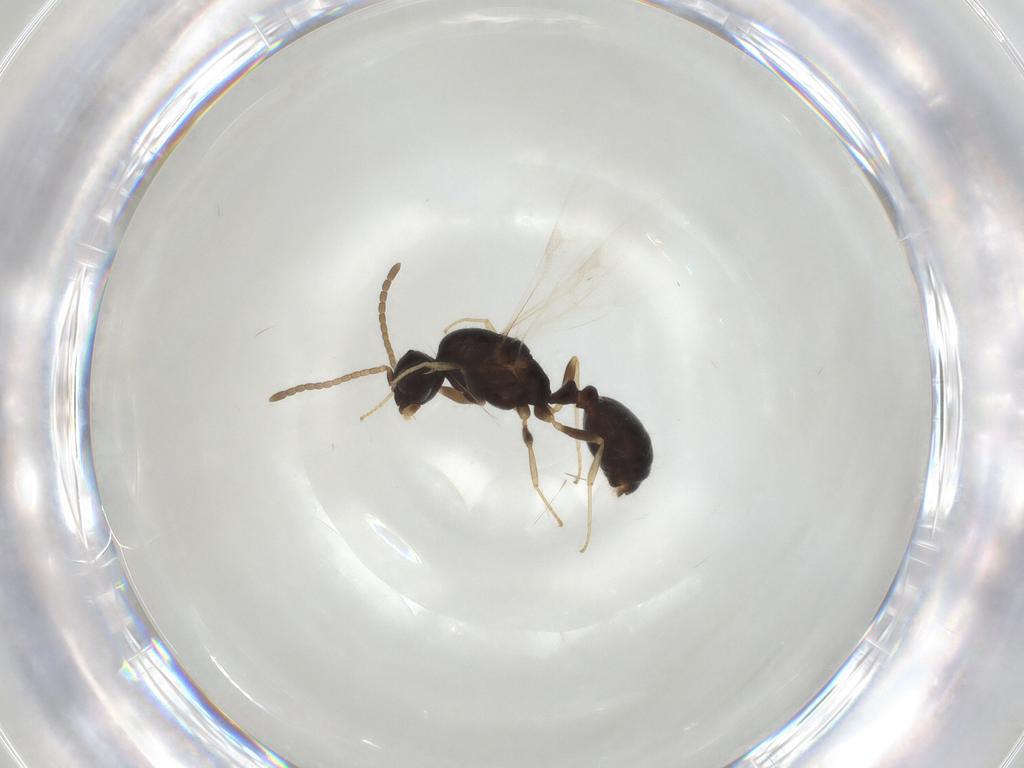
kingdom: Animalia
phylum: Arthropoda
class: Insecta
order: Hymenoptera
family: Formicidae
